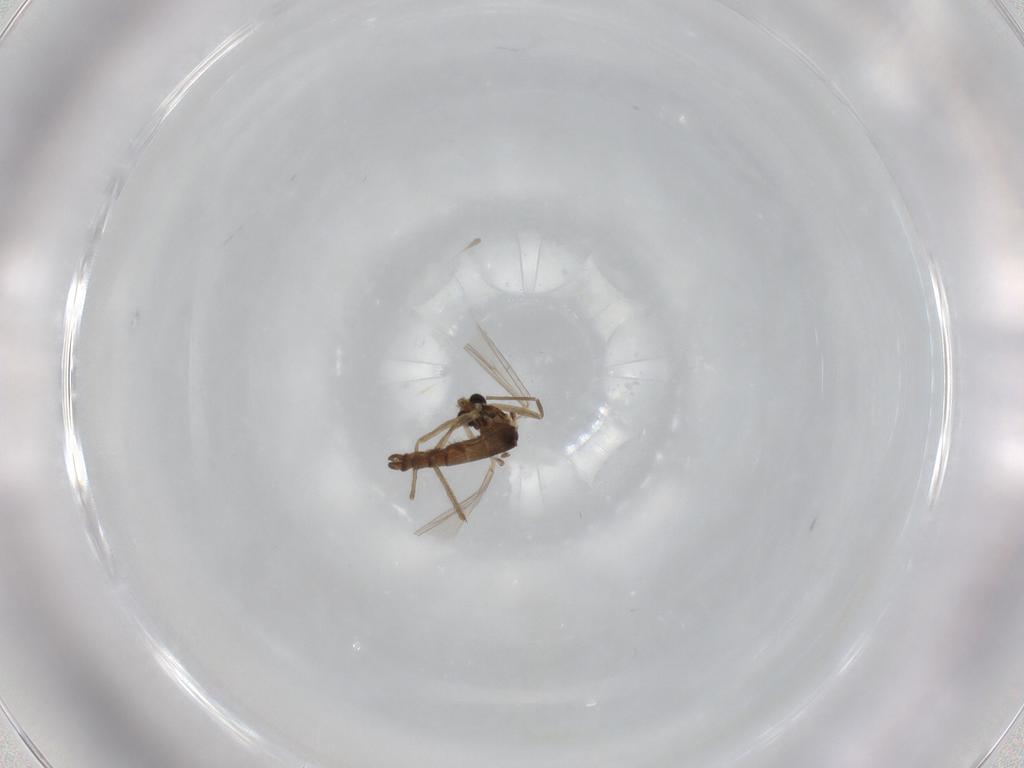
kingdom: Animalia
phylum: Arthropoda
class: Insecta
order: Diptera
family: Chironomidae
